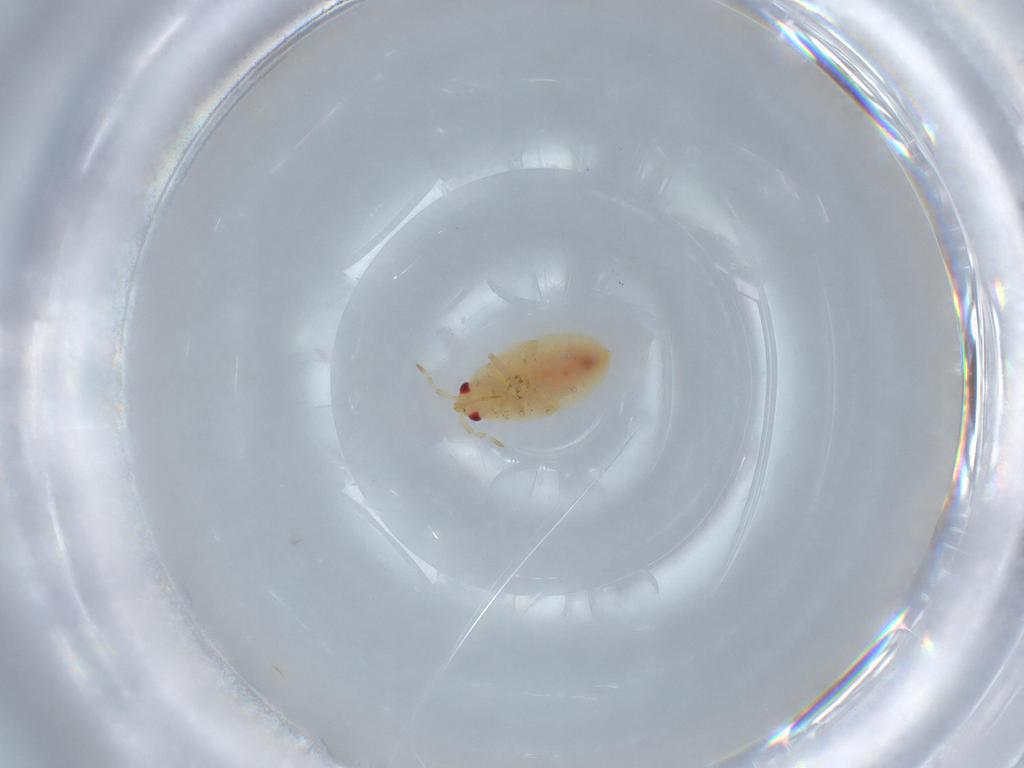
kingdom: Animalia
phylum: Arthropoda
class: Insecta
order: Hemiptera
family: Anthocoridae
